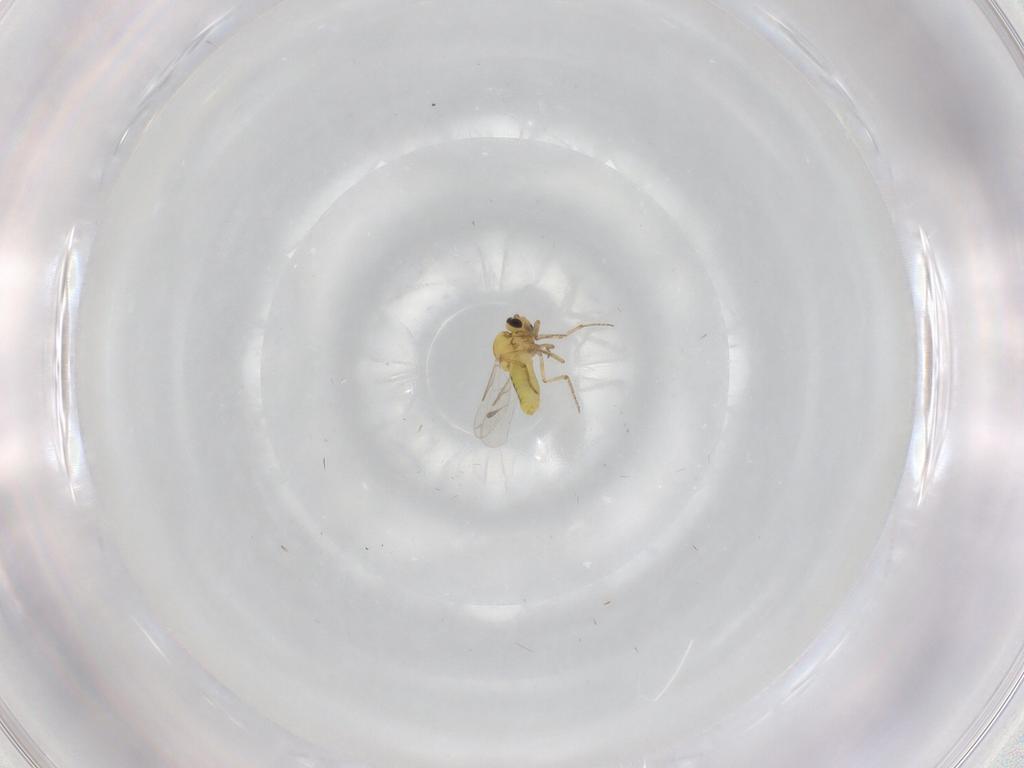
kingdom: Animalia
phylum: Arthropoda
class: Insecta
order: Diptera
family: Ceratopogonidae
